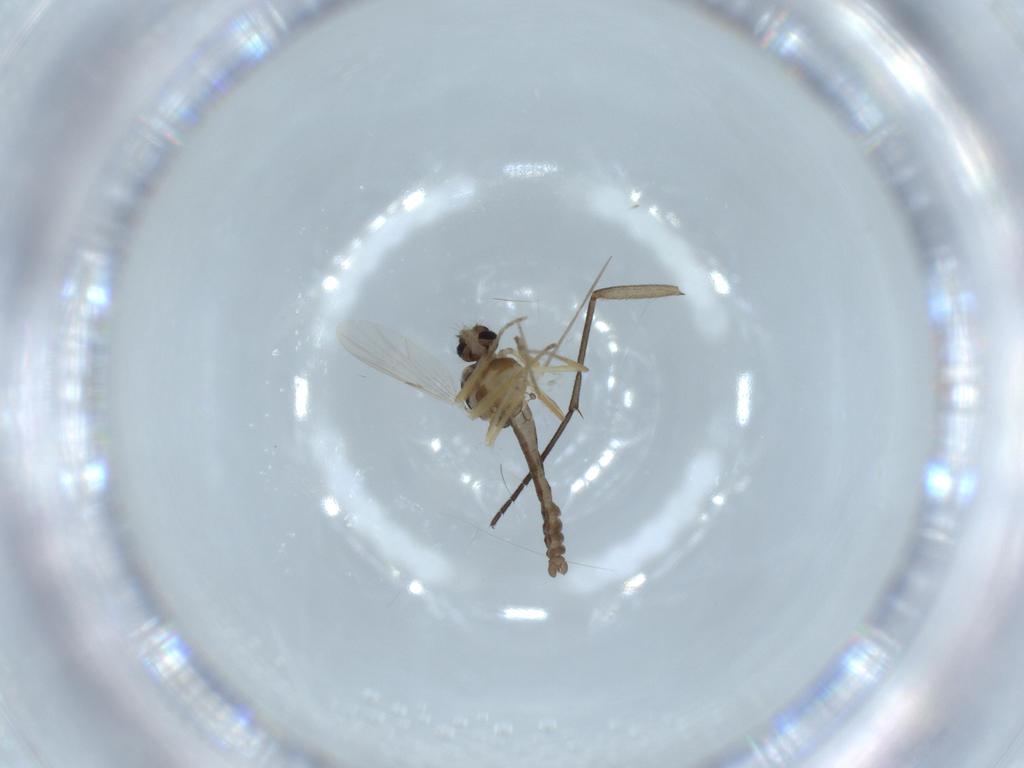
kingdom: Animalia
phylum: Arthropoda
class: Insecta
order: Diptera
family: Ceratopogonidae
